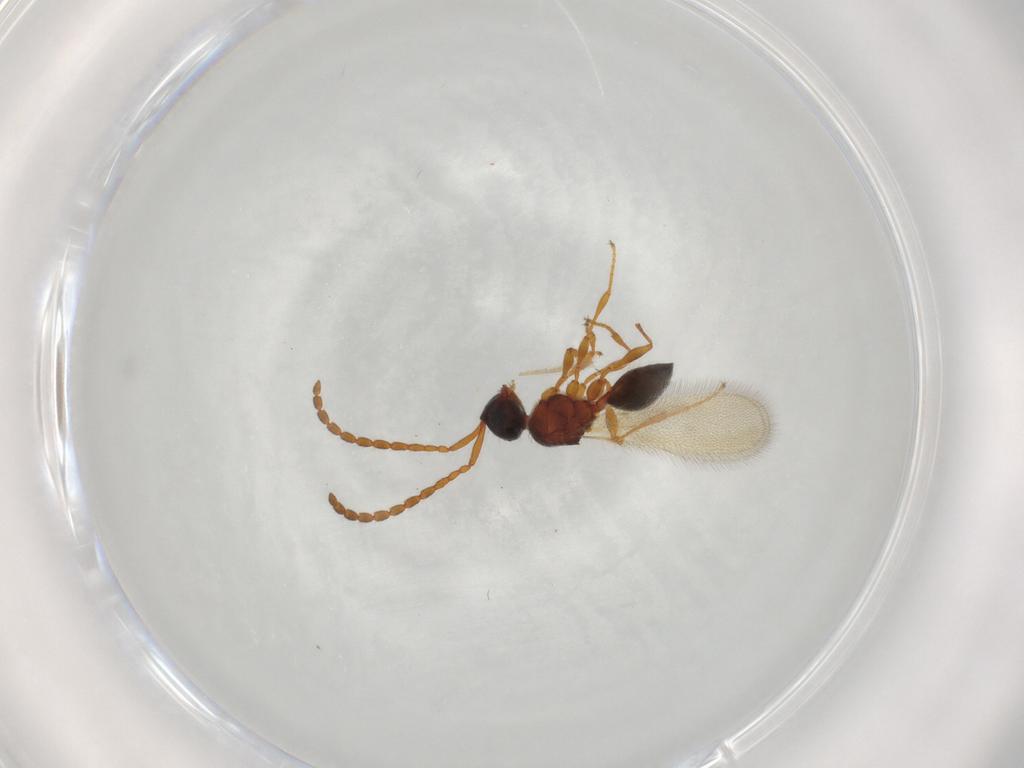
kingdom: Animalia
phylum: Arthropoda
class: Insecta
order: Hymenoptera
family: Diapriidae
